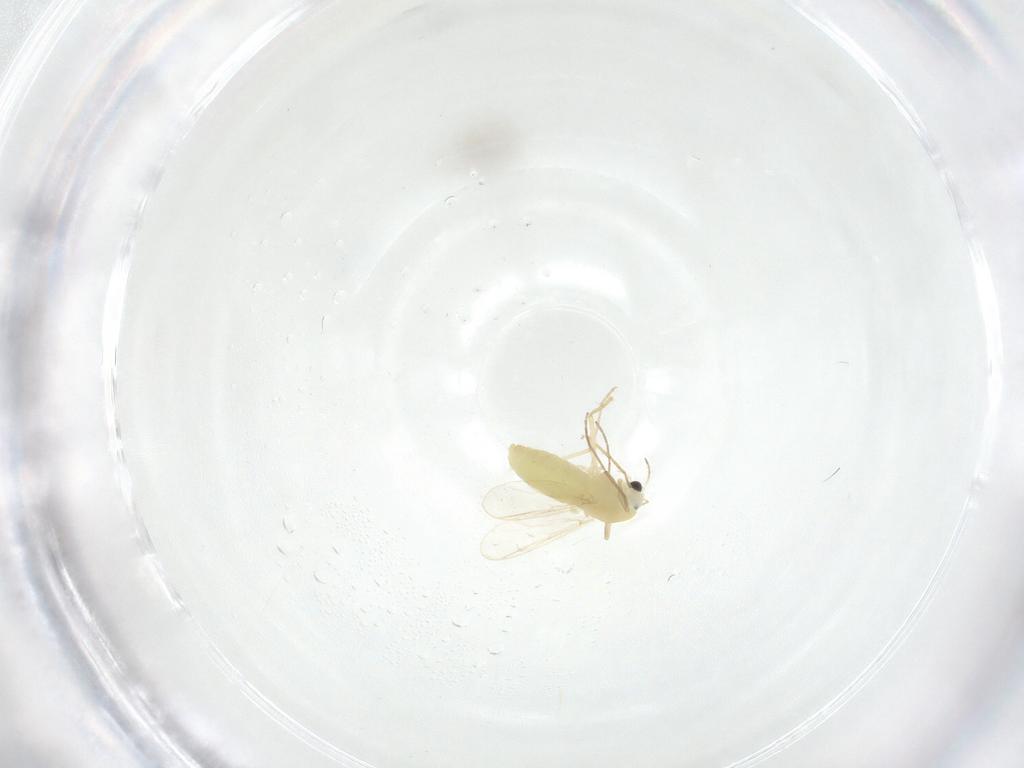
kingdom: Animalia
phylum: Arthropoda
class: Insecta
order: Diptera
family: Chironomidae
